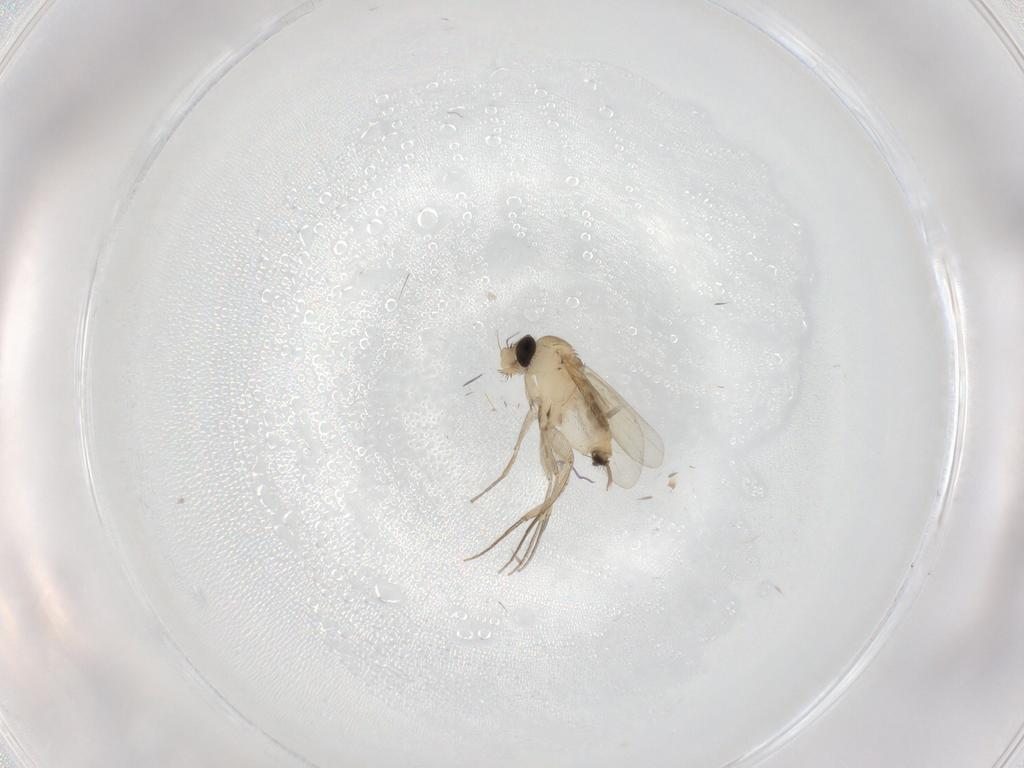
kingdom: Animalia
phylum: Arthropoda
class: Insecta
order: Diptera
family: Phoridae
